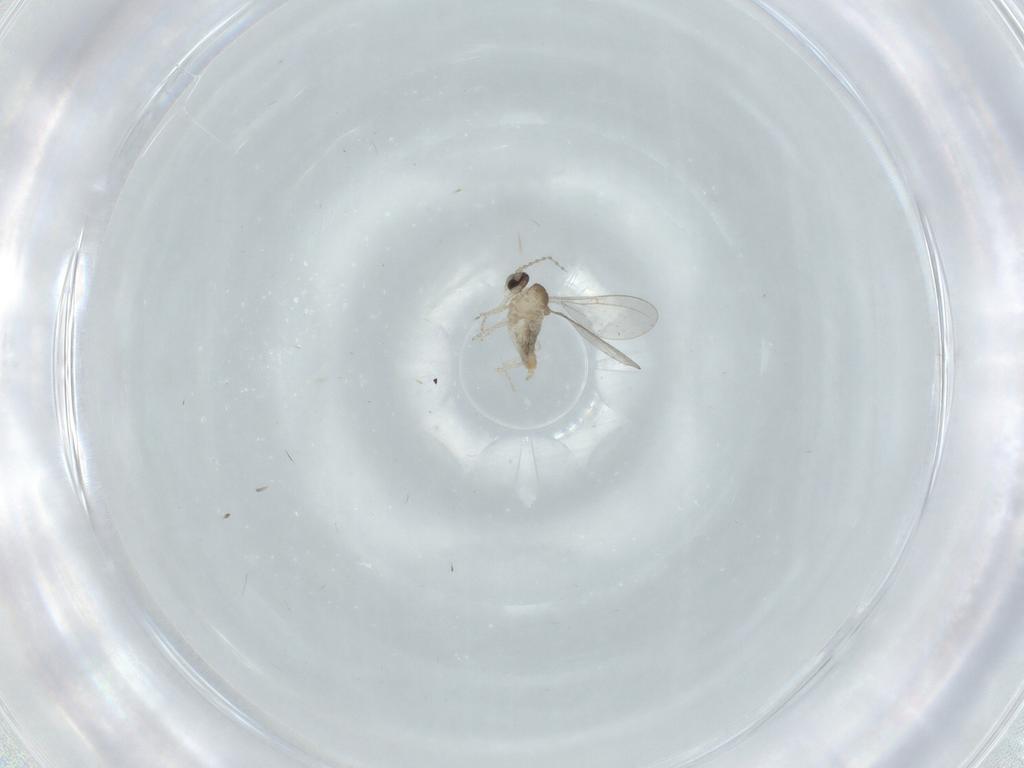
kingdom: Animalia
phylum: Arthropoda
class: Insecta
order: Diptera
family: Cecidomyiidae
